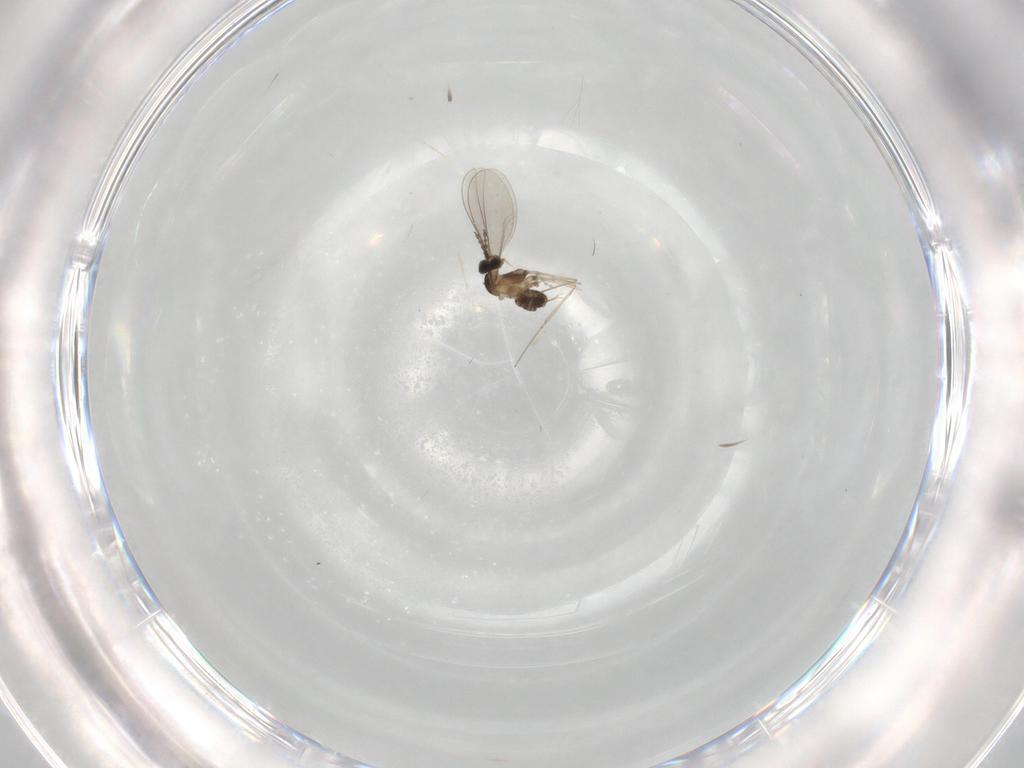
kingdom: Animalia
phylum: Arthropoda
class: Insecta
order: Diptera
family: Cecidomyiidae
